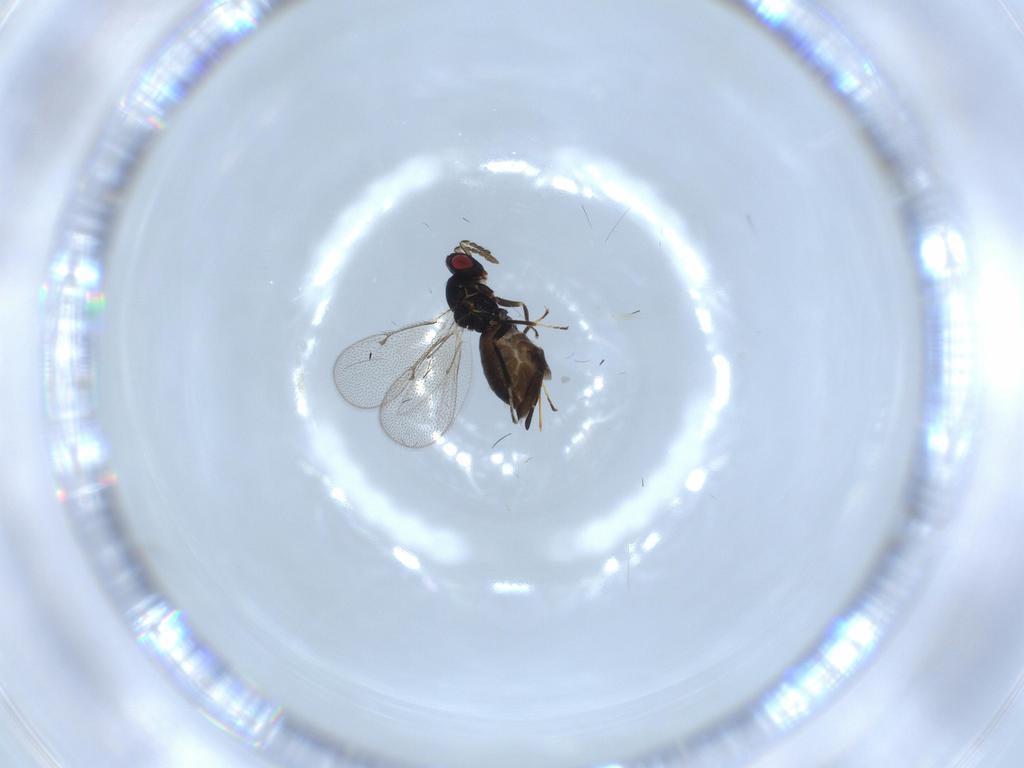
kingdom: Animalia
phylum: Arthropoda
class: Insecta
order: Hymenoptera
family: Eulophidae
